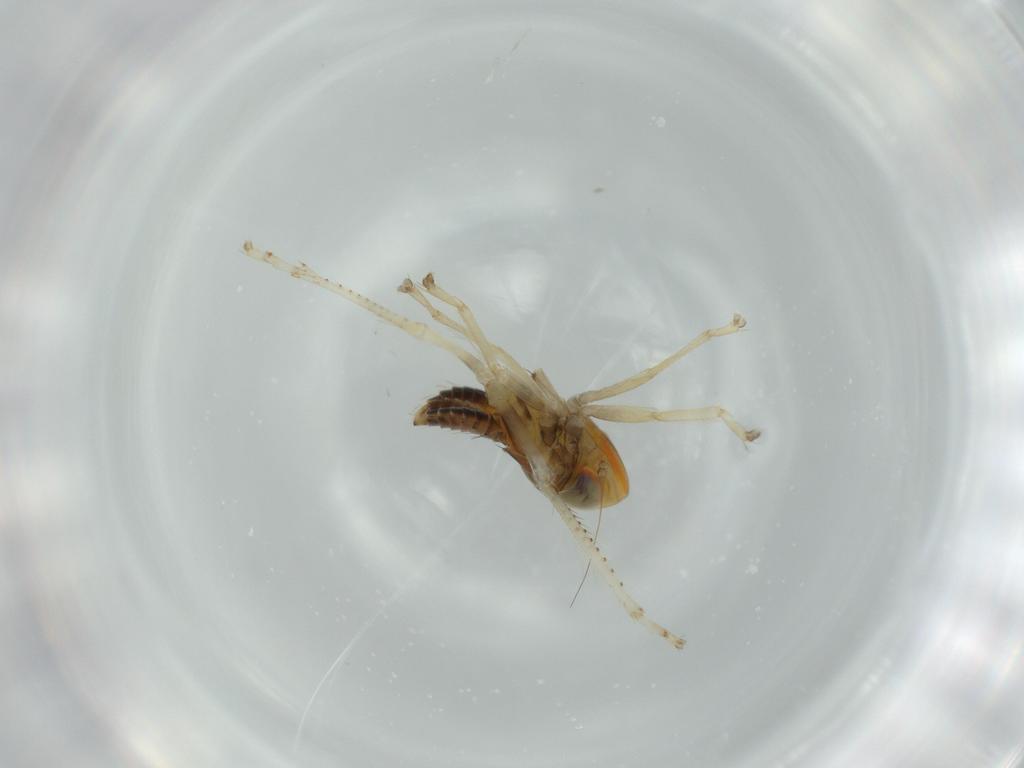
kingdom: Animalia
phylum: Arthropoda
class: Insecta
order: Hemiptera
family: Cicadellidae
